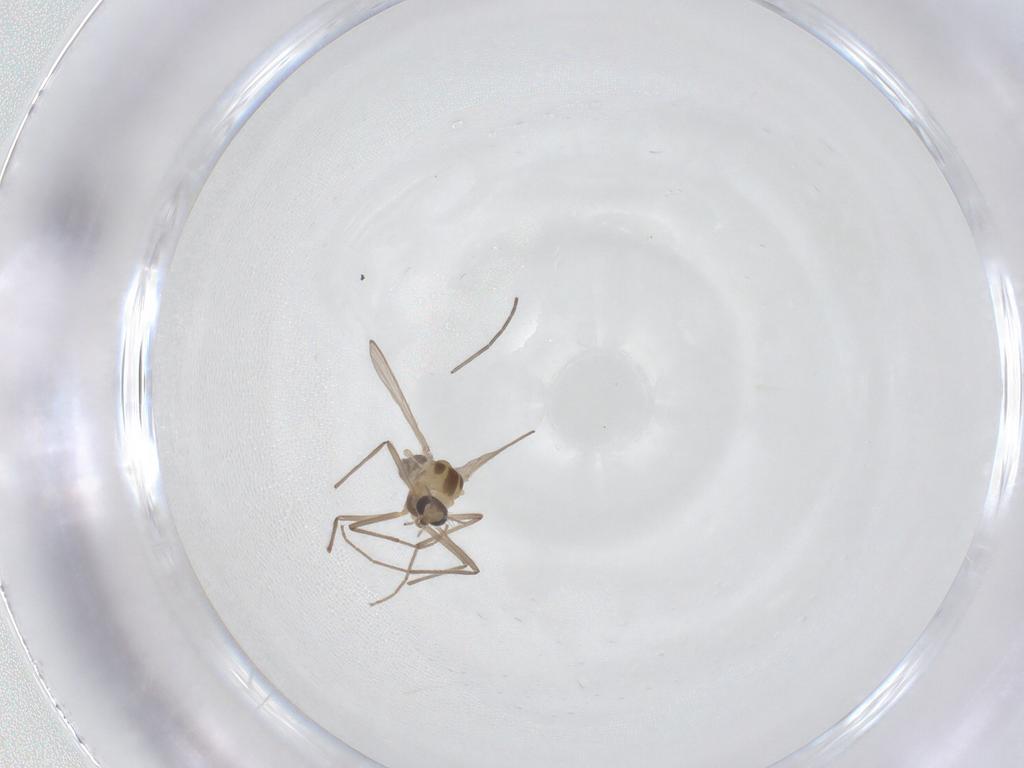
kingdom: Animalia
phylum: Arthropoda
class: Insecta
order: Diptera
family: Chironomidae
